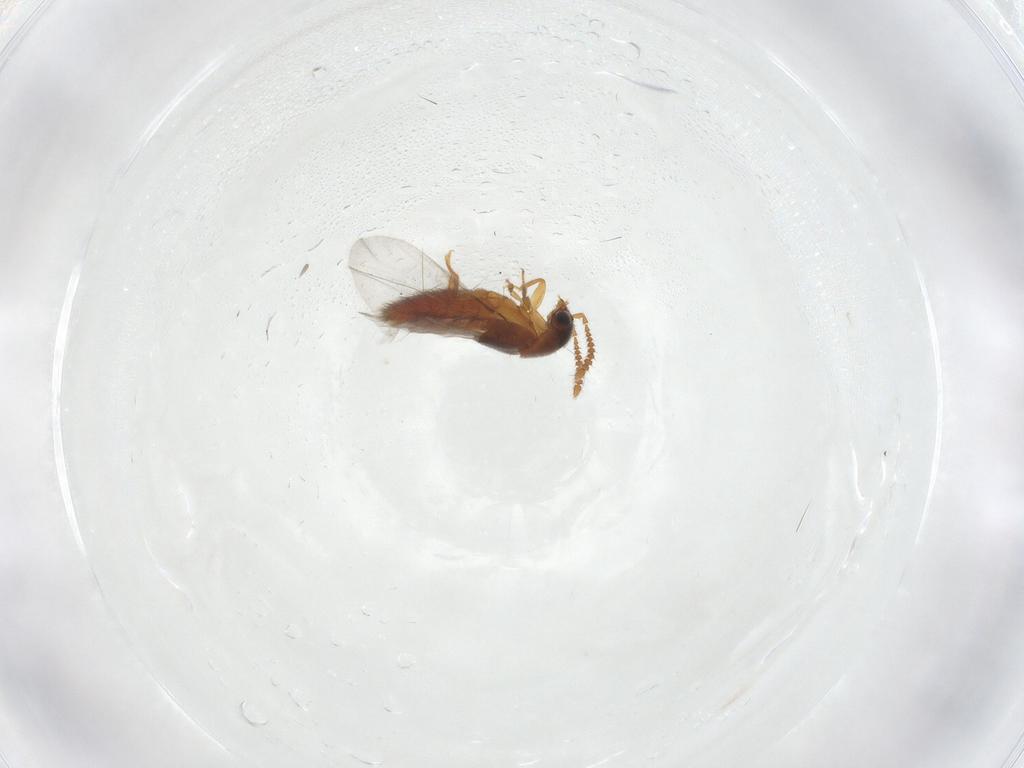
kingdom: Animalia
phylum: Arthropoda
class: Insecta
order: Coleoptera
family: Staphylinidae
